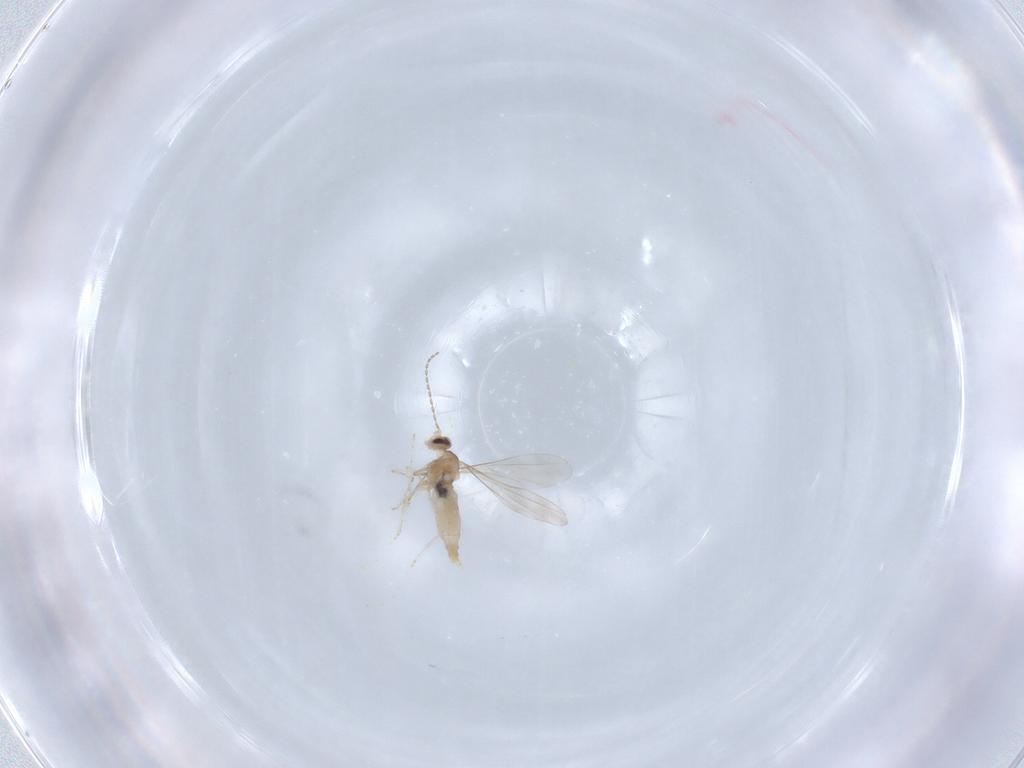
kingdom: Animalia
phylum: Arthropoda
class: Insecta
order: Diptera
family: Cecidomyiidae
